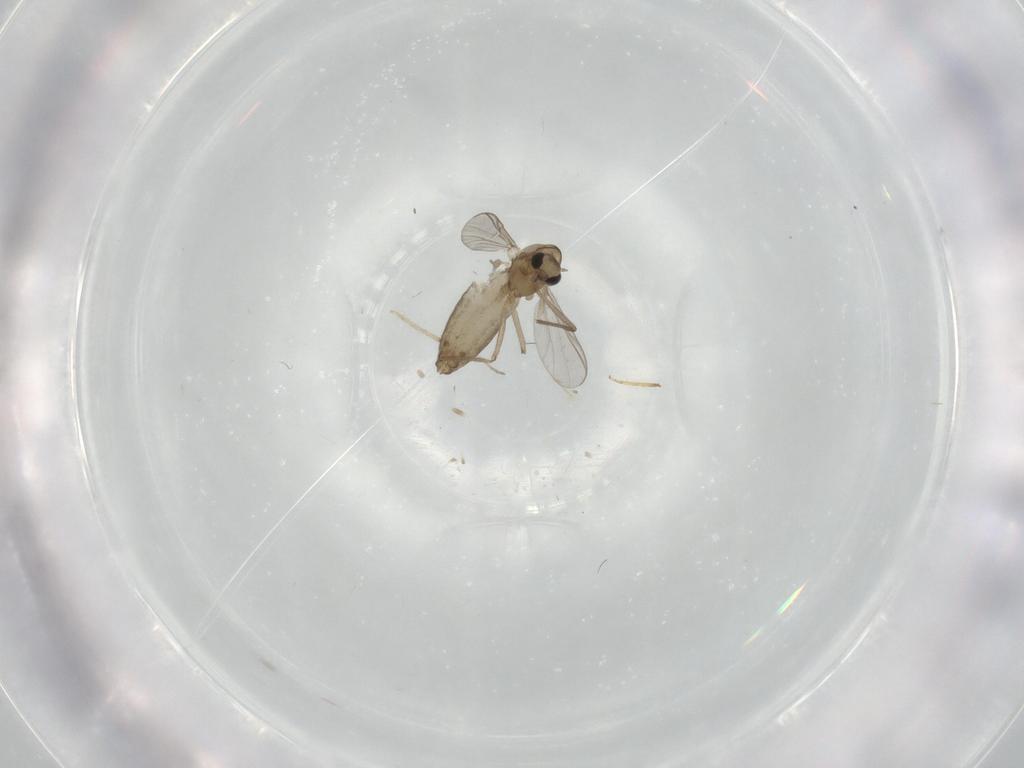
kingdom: Animalia
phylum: Arthropoda
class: Insecta
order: Diptera
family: Chironomidae
